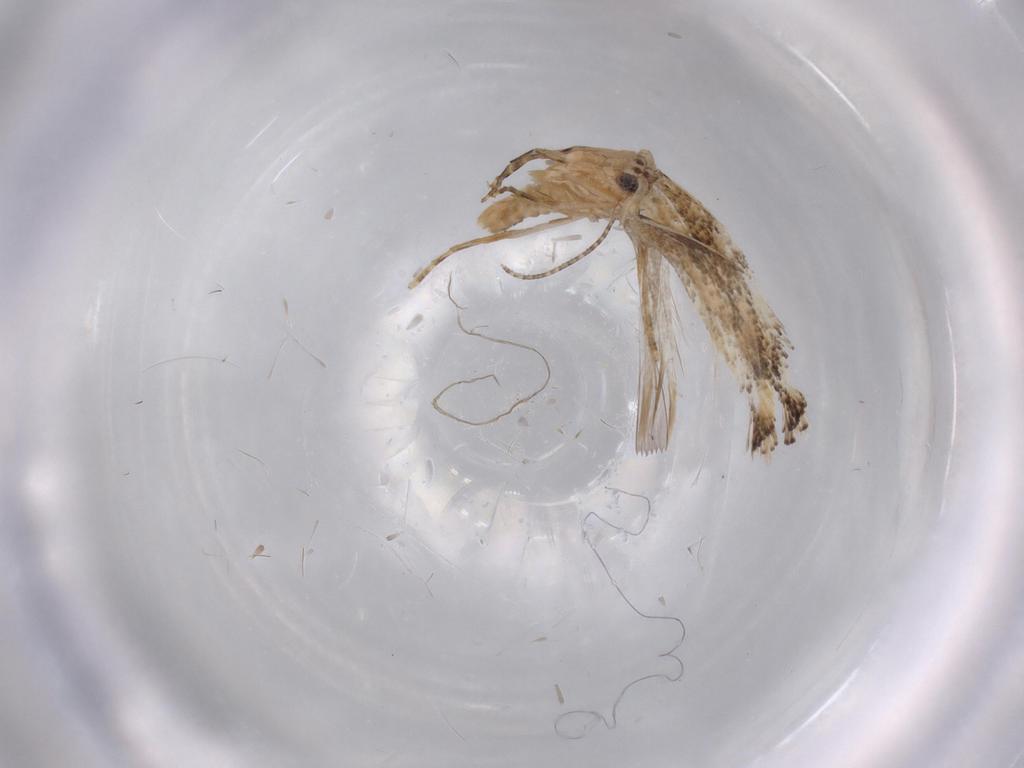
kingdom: Animalia
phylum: Arthropoda
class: Insecta
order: Lepidoptera
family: Bucculatricidae
